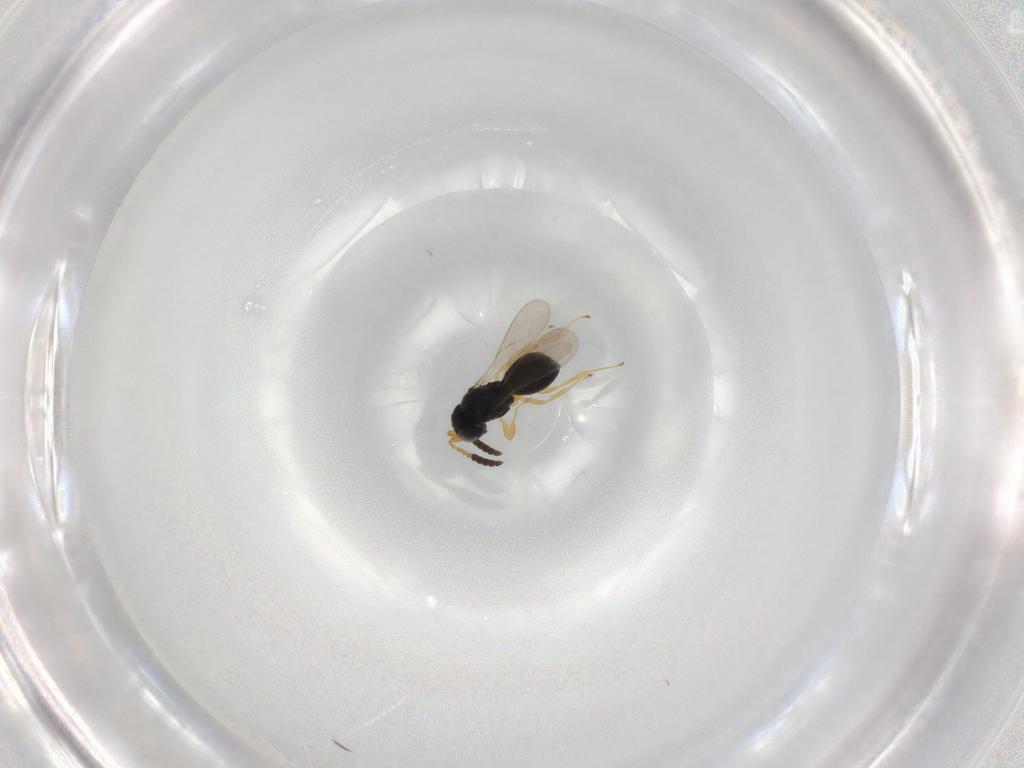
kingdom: Animalia
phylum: Arthropoda
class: Insecta
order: Hymenoptera
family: Scelionidae
